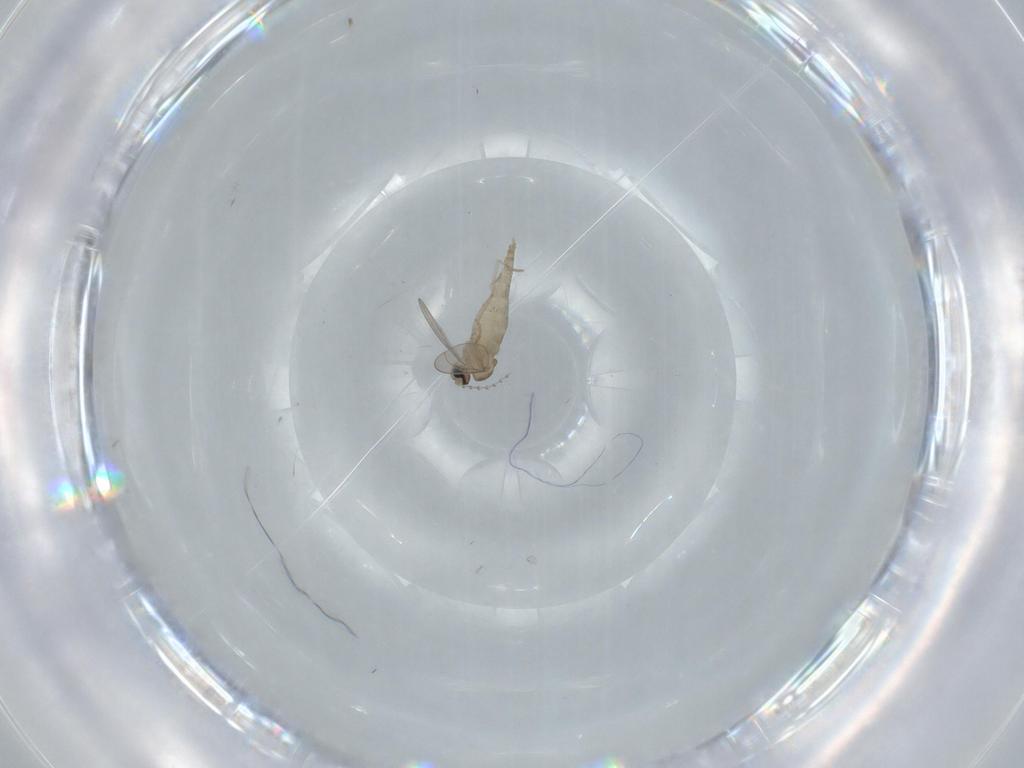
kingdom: Animalia
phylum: Arthropoda
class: Insecta
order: Diptera
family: Cecidomyiidae
